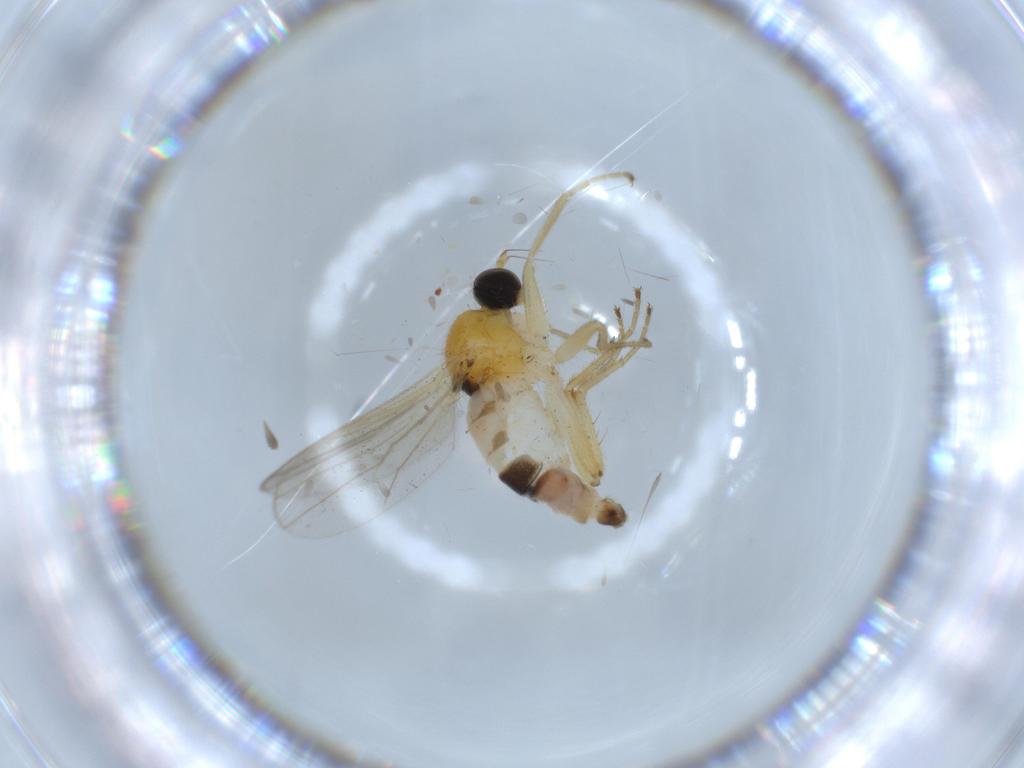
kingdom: Animalia
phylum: Arthropoda
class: Insecta
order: Diptera
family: Hybotidae
